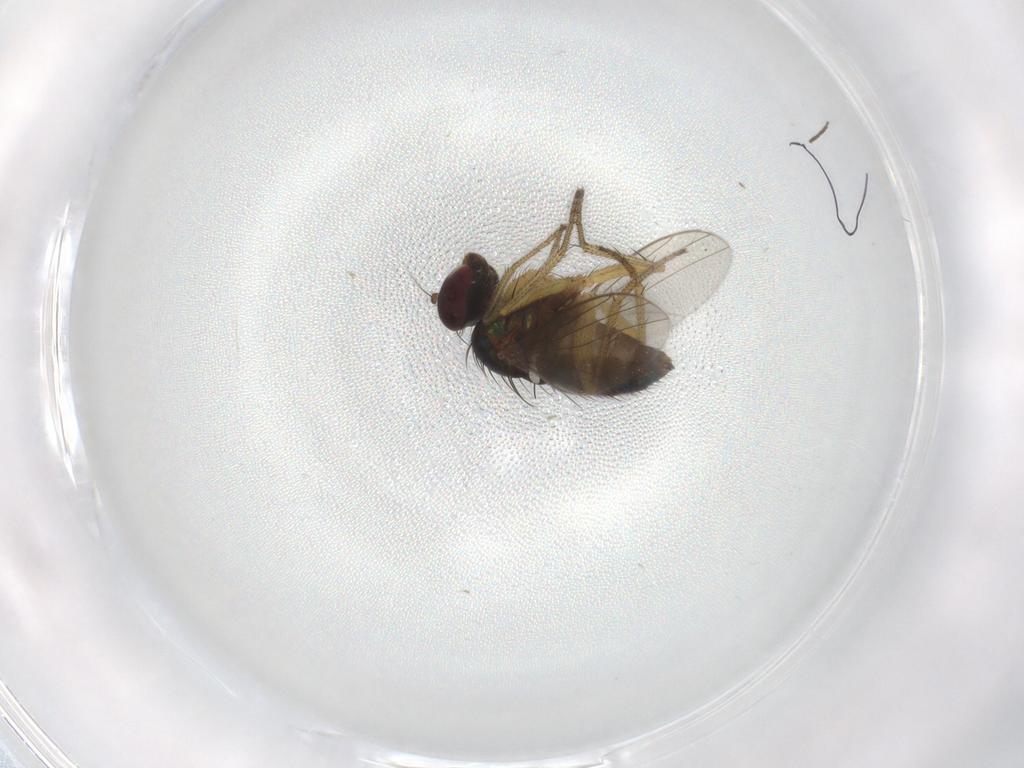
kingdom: Animalia
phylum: Arthropoda
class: Insecta
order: Diptera
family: Dolichopodidae
